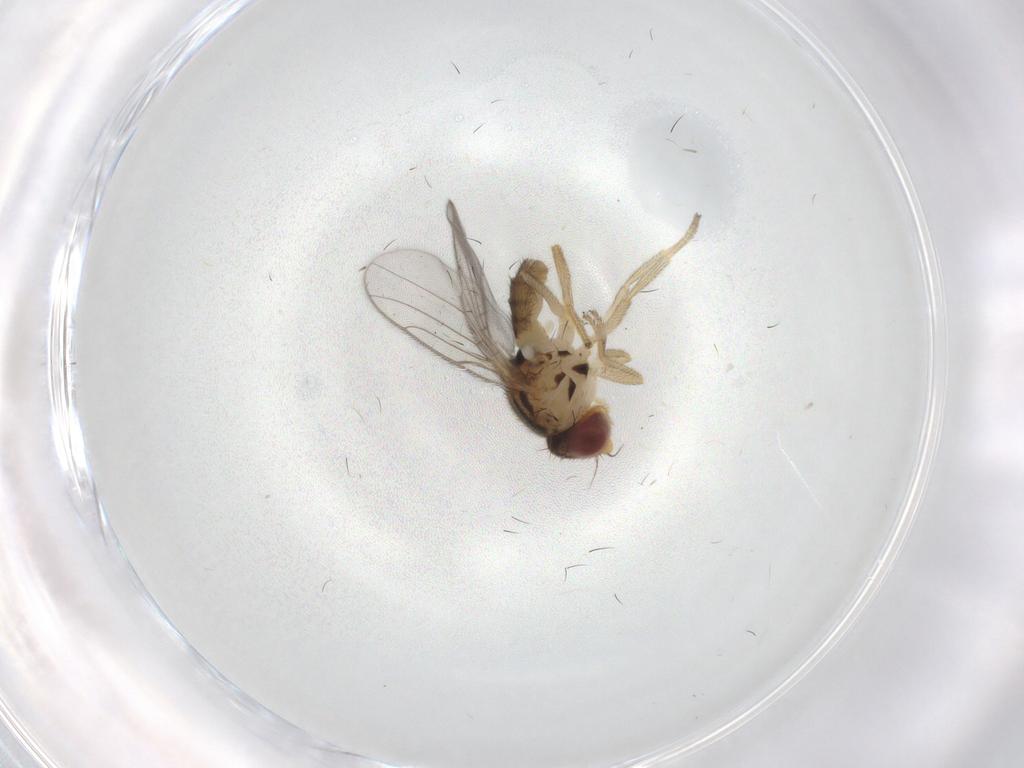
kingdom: Animalia
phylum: Arthropoda
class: Insecta
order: Diptera
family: Chloropidae
